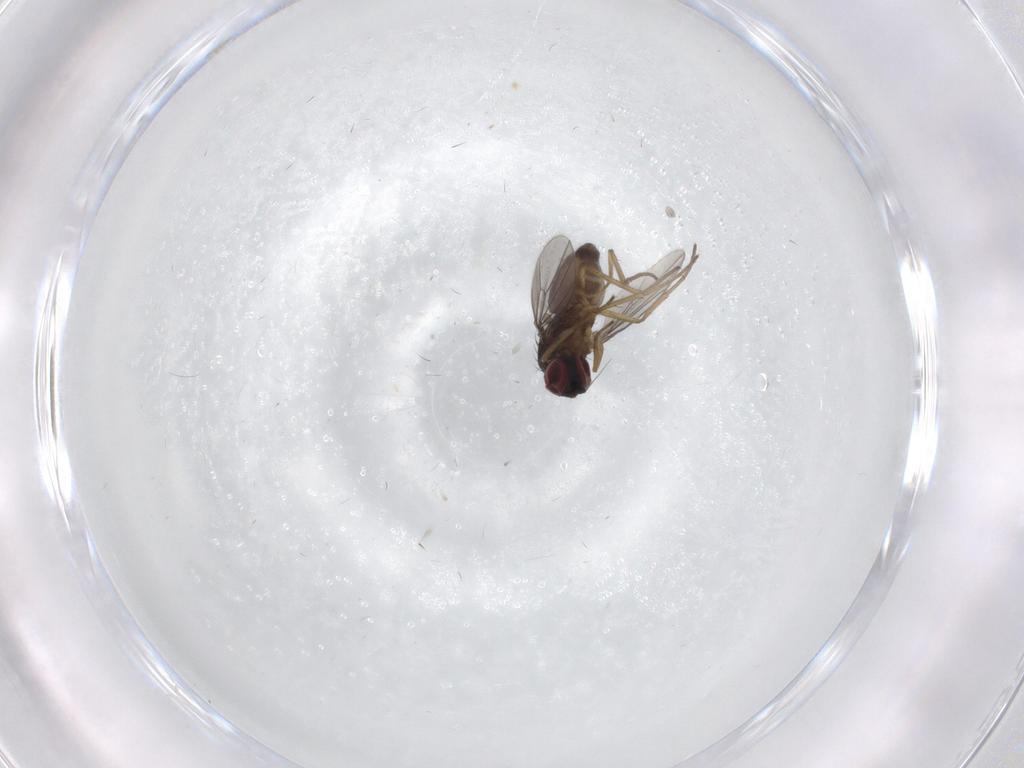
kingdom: Animalia
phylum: Arthropoda
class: Insecta
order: Diptera
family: Dolichopodidae
